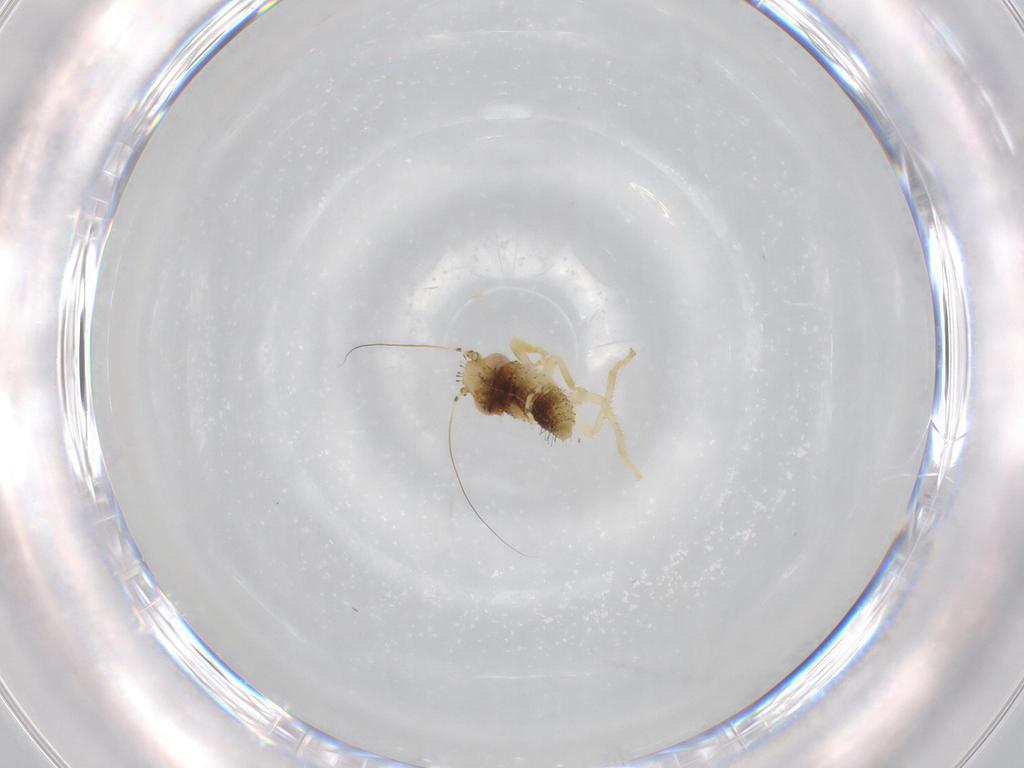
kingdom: Animalia
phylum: Arthropoda
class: Insecta
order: Hemiptera
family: Cicadellidae
